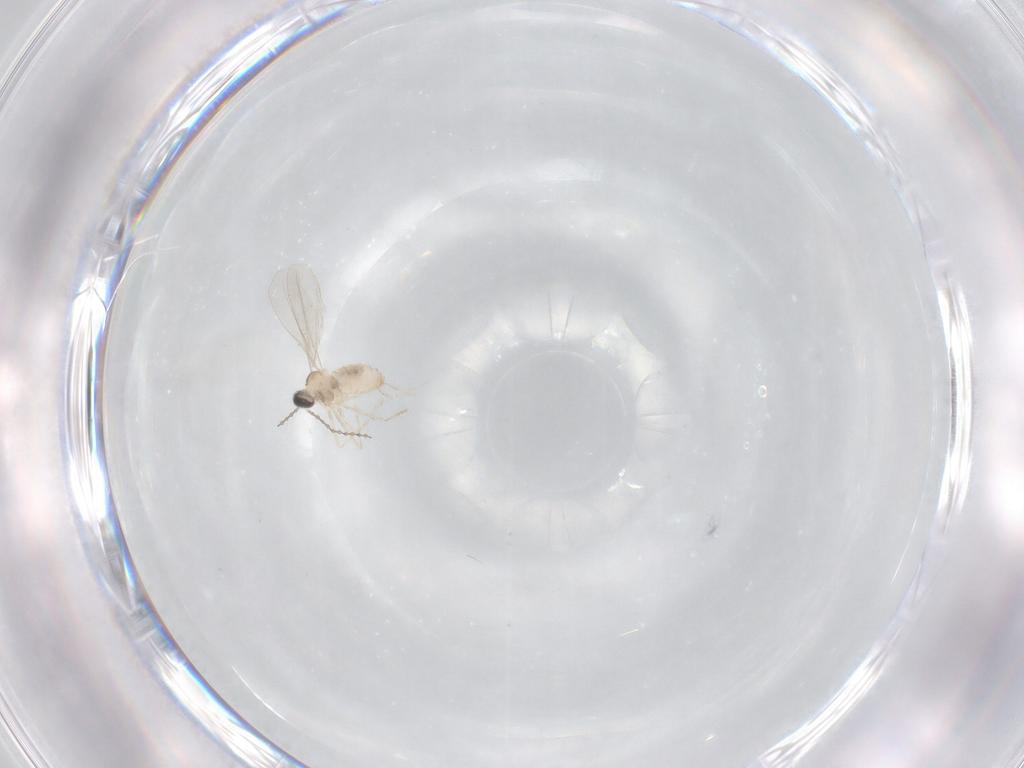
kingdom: Animalia
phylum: Arthropoda
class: Insecta
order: Diptera
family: Cecidomyiidae
